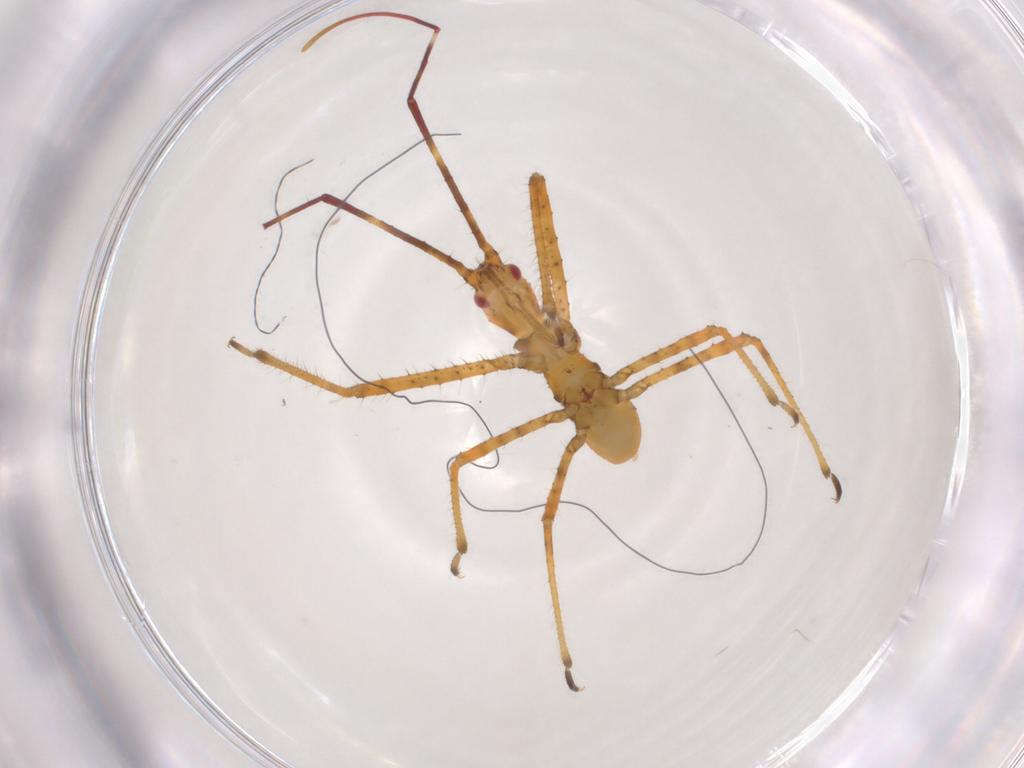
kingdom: Animalia
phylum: Arthropoda
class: Insecta
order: Hemiptera
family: Reduviidae
